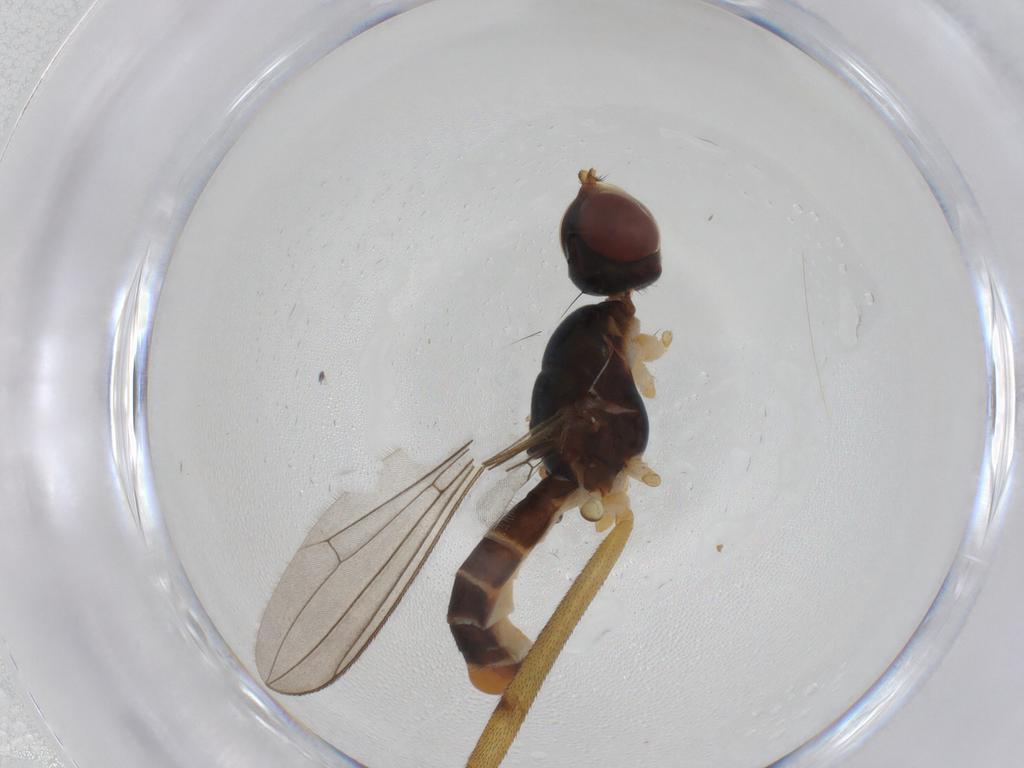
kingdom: Animalia
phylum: Arthropoda
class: Insecta
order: Diptera
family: Micropezidae
